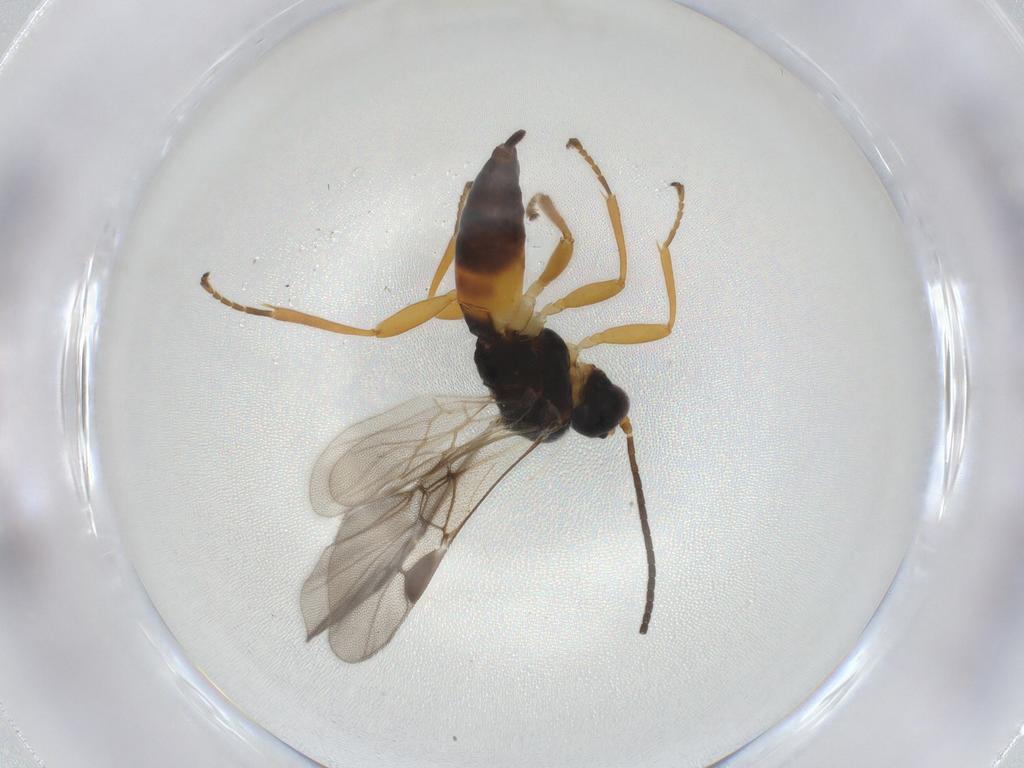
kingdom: Animalia
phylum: Arthropoda
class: Insecta
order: Hymenoptera
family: Braconidae
